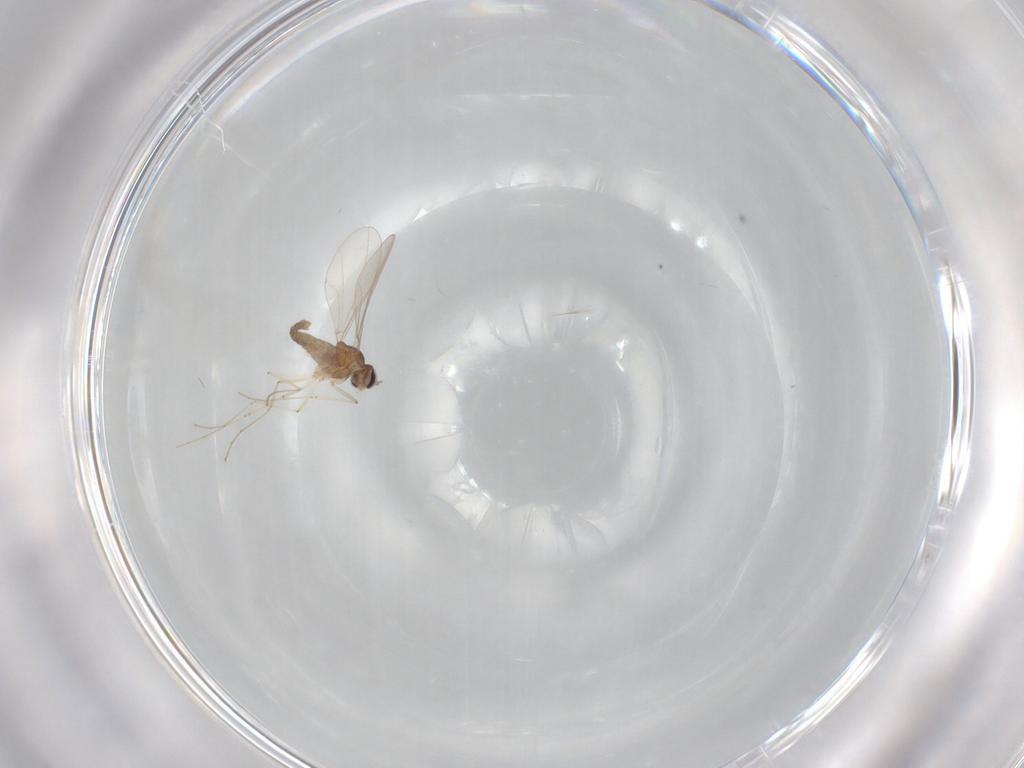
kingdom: Animalia
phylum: Arthropoda
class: Insecta
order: Diptera
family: Cecidomyiidae
